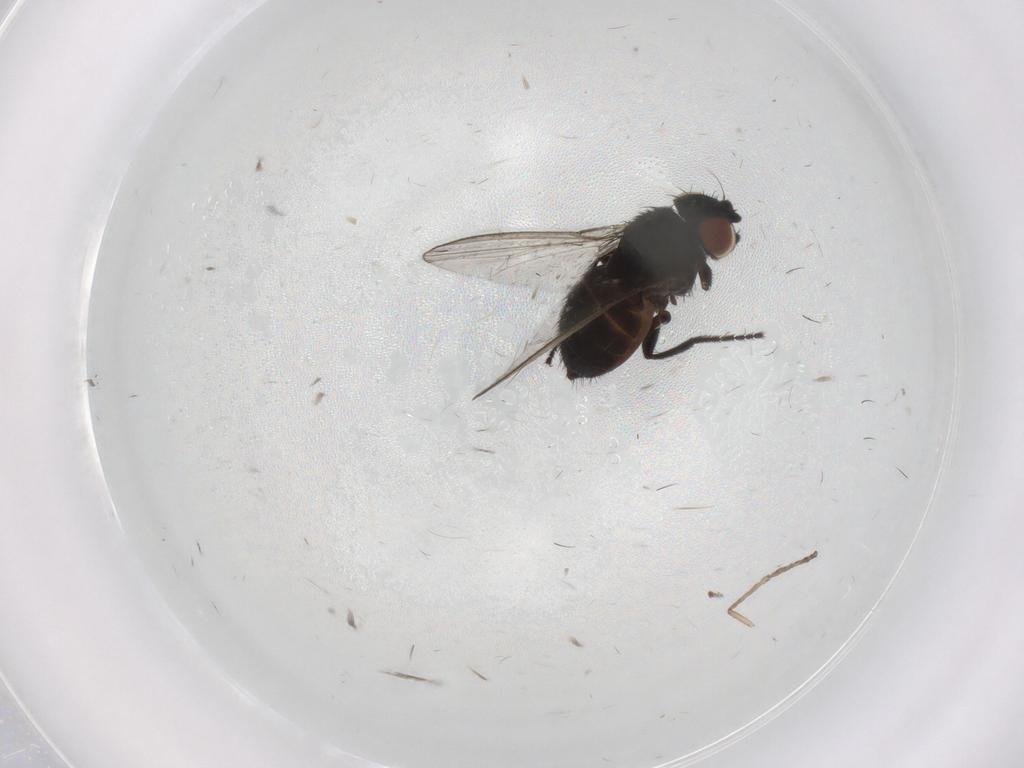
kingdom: Animalia
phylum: Arthropoda
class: Insecta
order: Diptera
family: Milichiidae
